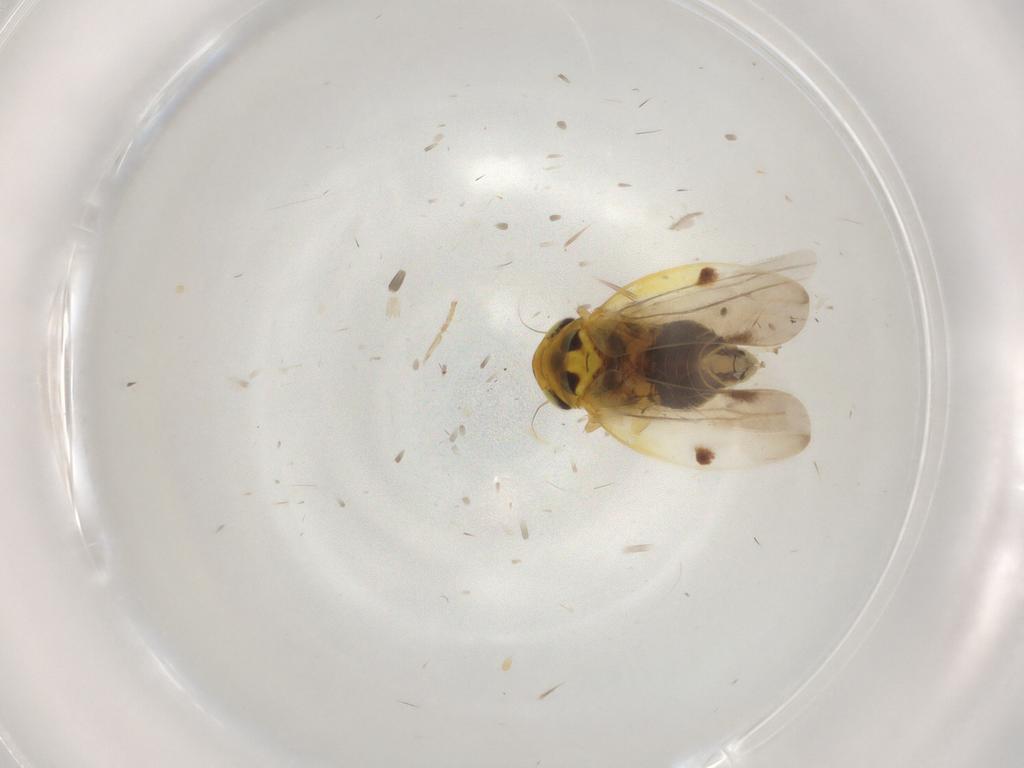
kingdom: Animalia
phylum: Arthropoda
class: Insecta
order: Hemiptera
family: Cicadellidae
